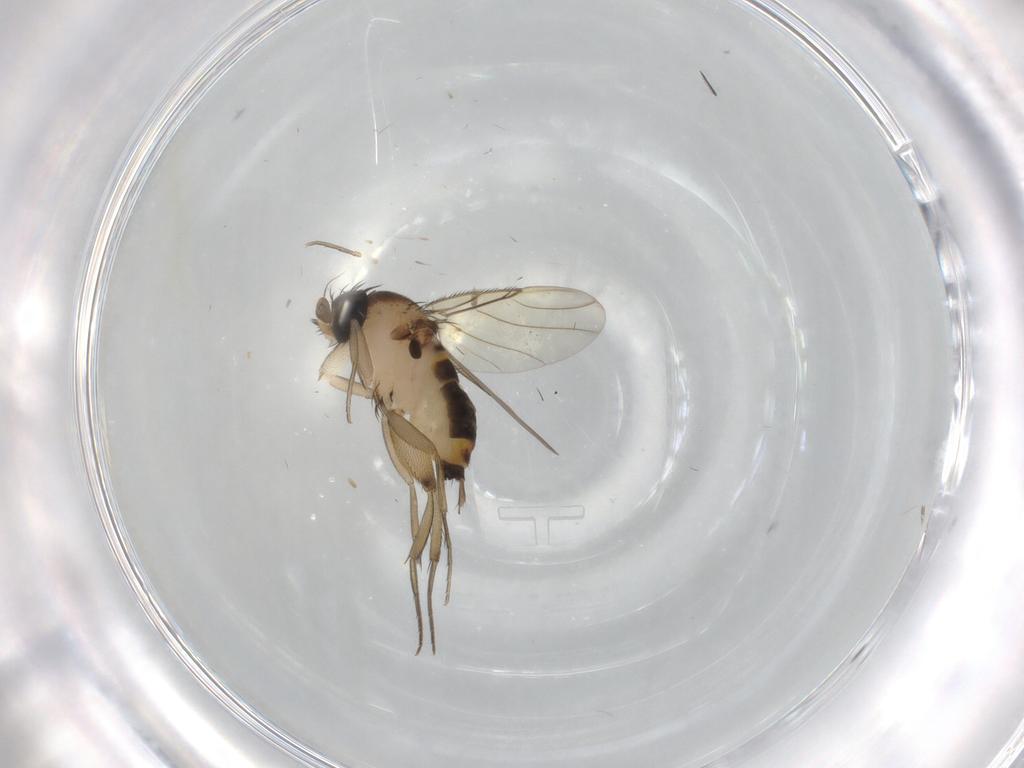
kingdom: Animalia
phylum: Arthropoda
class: Insecta
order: Diptera
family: Phoridae
